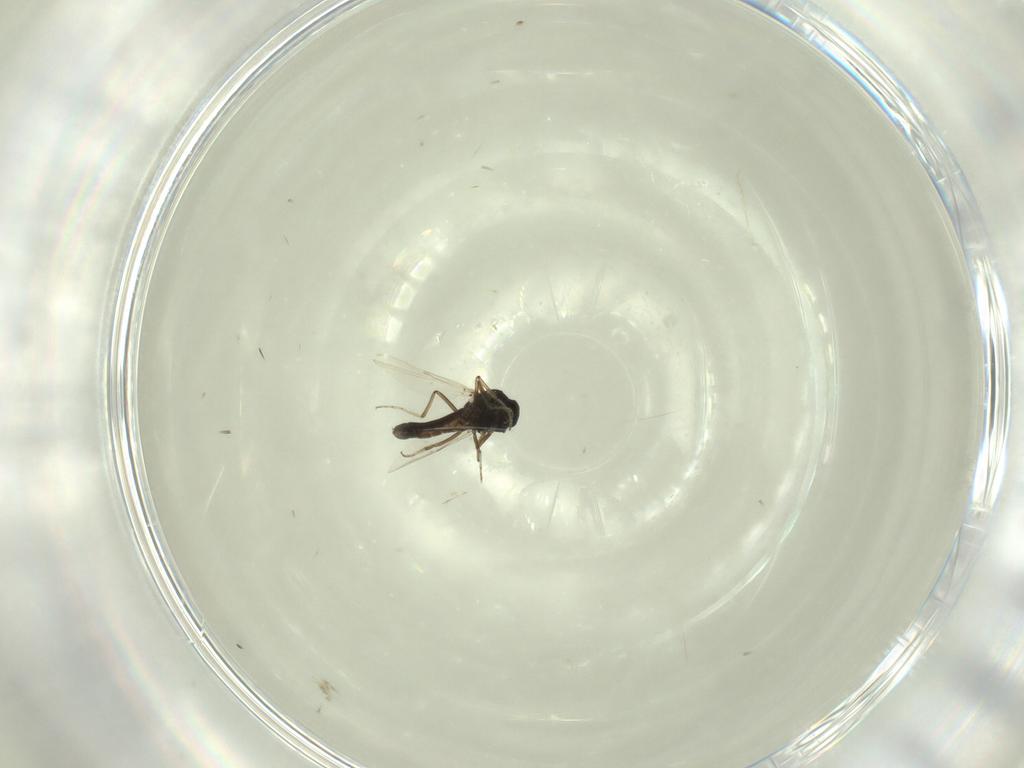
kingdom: Animalia
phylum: Arthropoda
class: Insecta
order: Diptera
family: Ceratopogonidae
